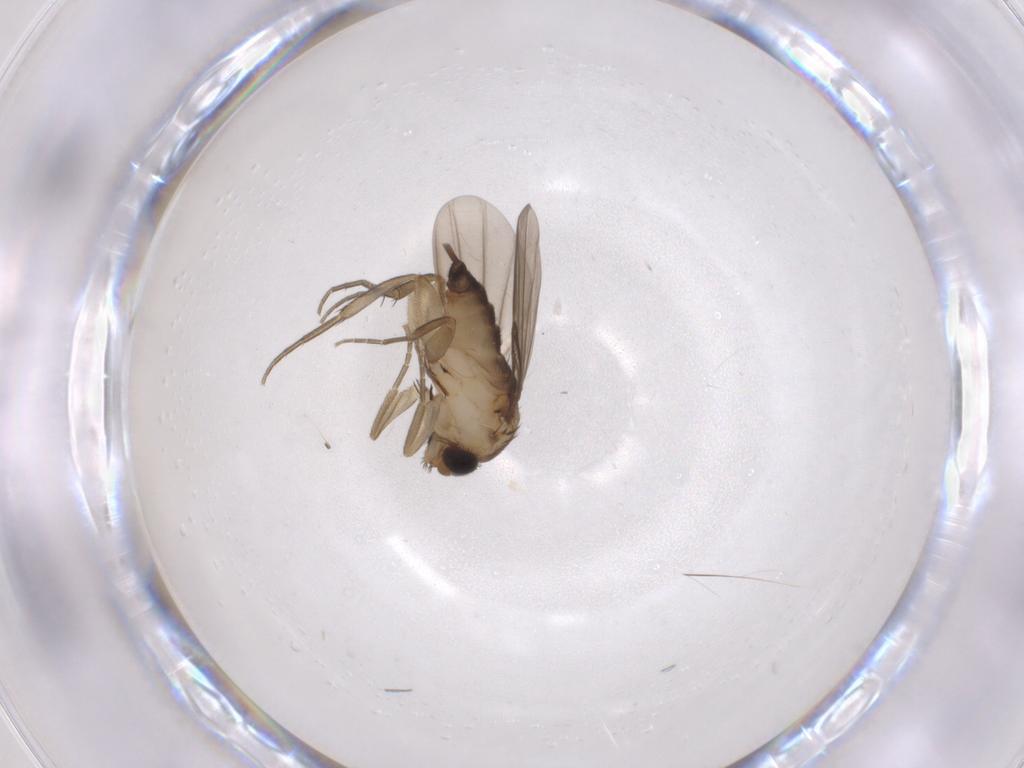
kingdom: Animalia
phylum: Arthropoda
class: Insecta
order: Diptera
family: Phoridae
